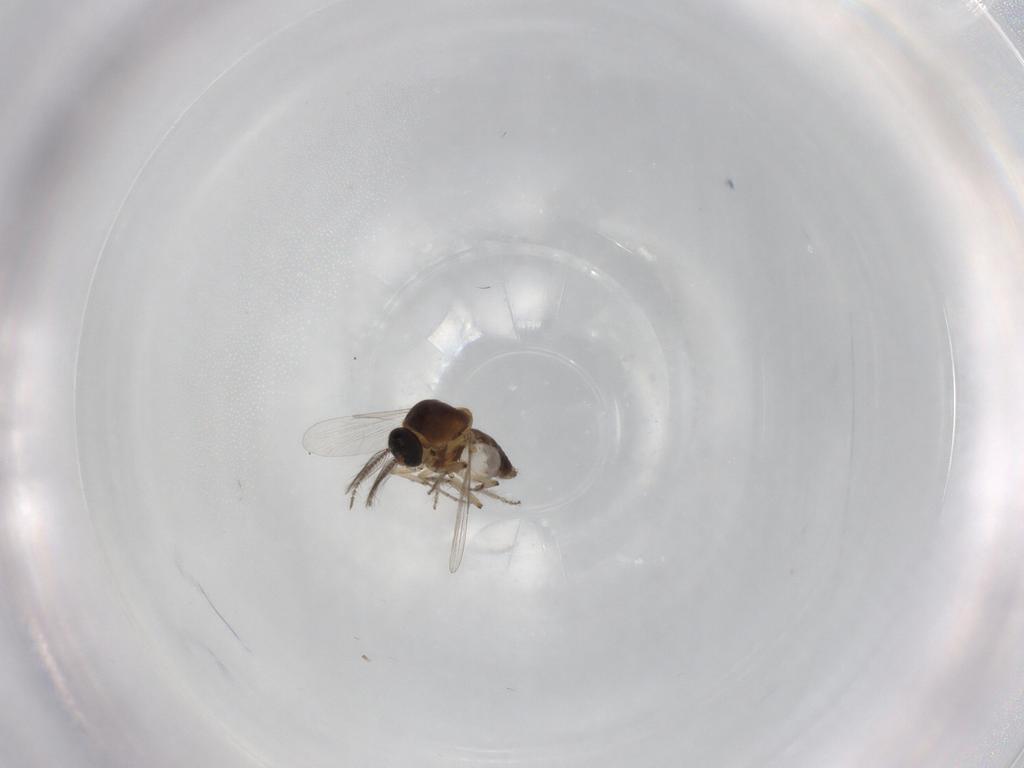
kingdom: Animalia
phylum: Arthropoda
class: Insecta
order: Diptera
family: Ceratopogonidae
